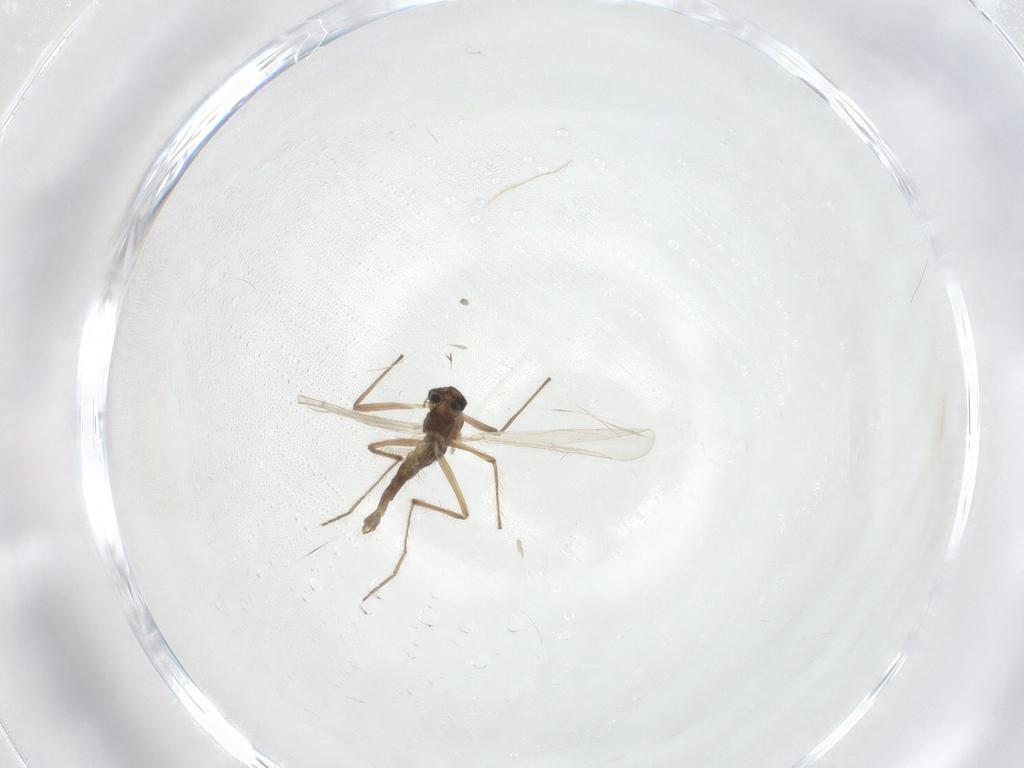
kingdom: Animalia
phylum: Arthropoda
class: Insecta
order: Diptera
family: Chironomidae
